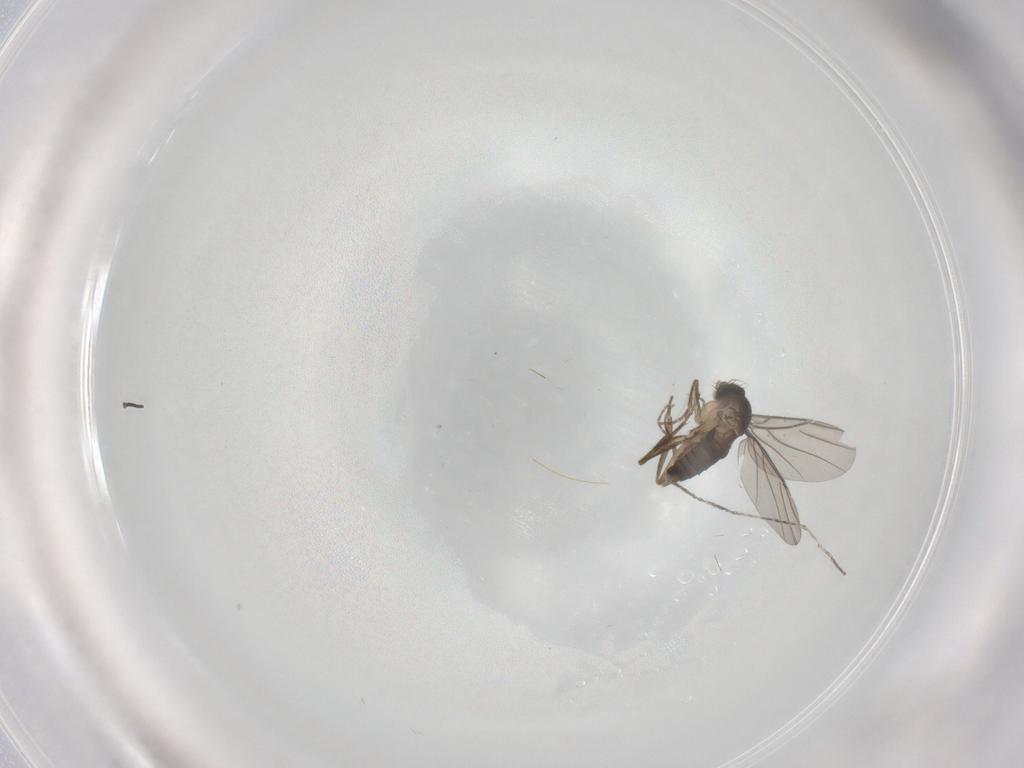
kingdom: Animalia
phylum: Arthropoda
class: Insecta
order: Diptera
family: Phoridae
